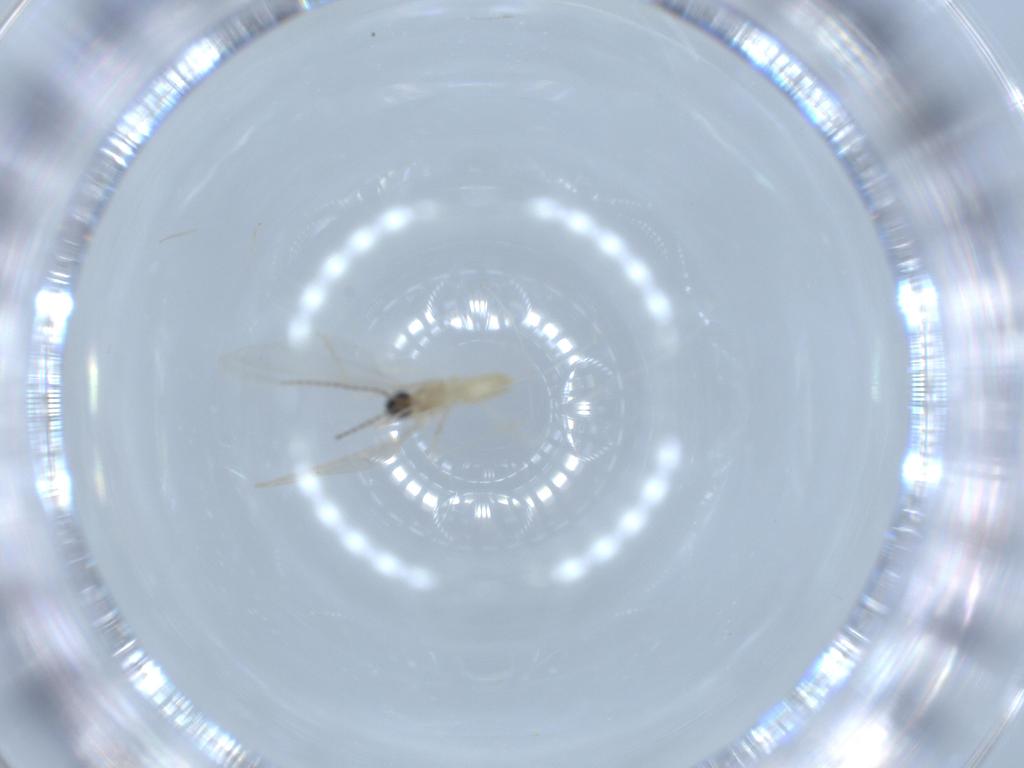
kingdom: Animalia
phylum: Arthropoda
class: Insecta
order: Diptera
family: Cecidomyiidae
